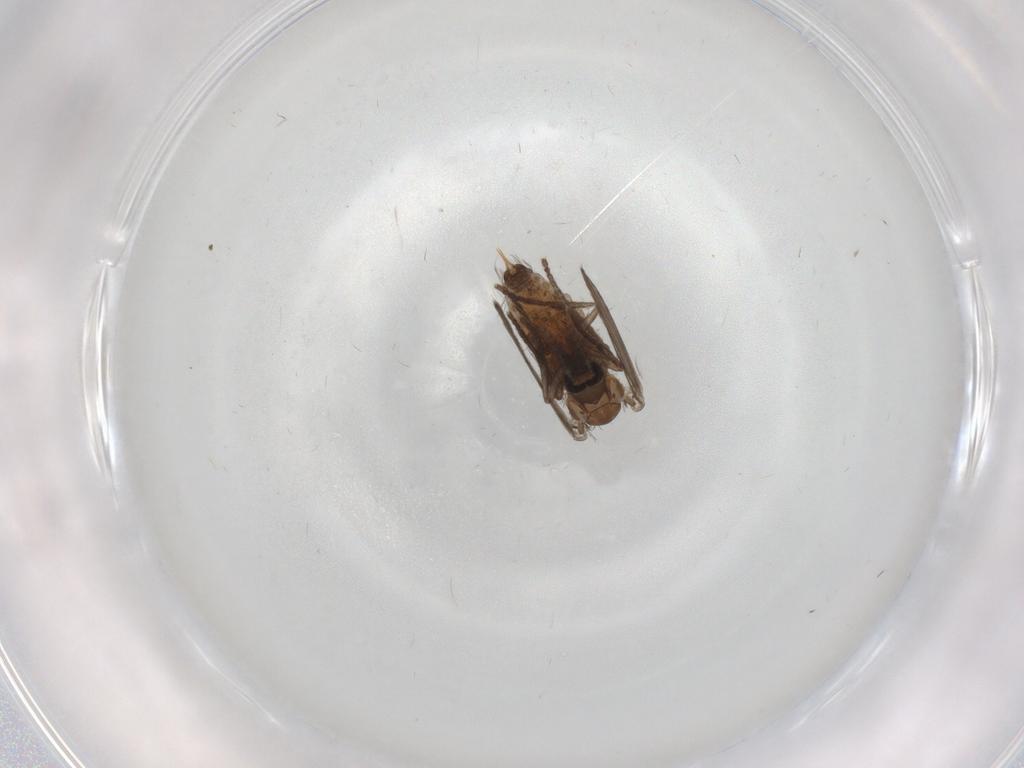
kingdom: Animalia
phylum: Arthropoda
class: Insecta
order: Diptera
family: Psychodidae
